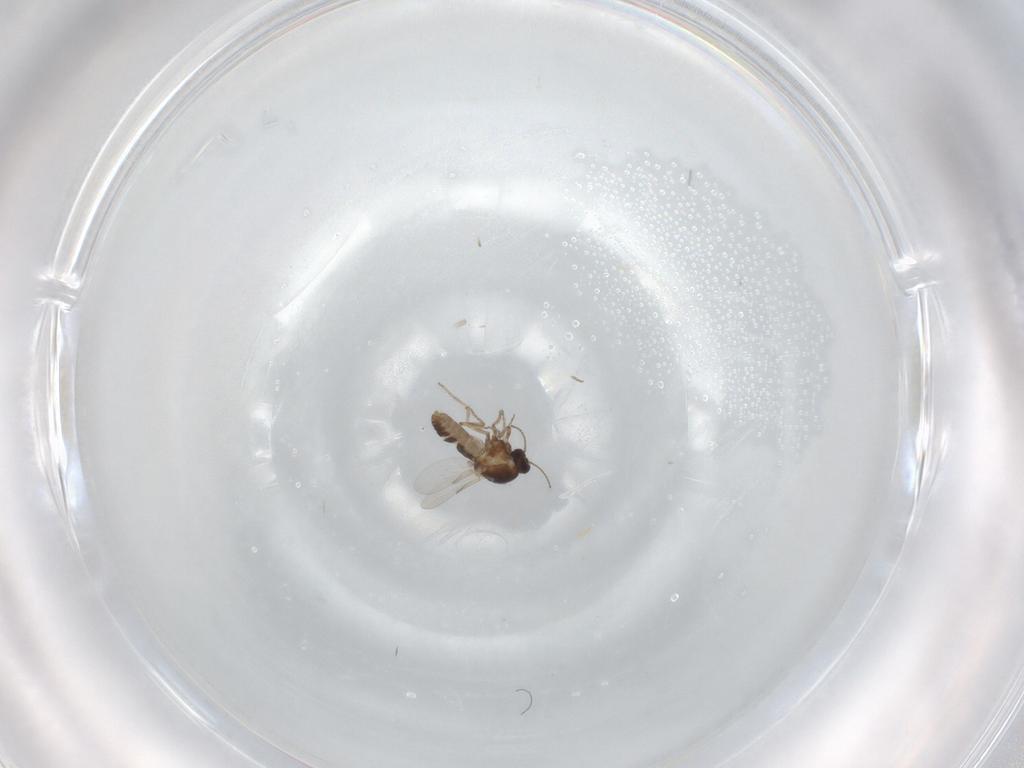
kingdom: Animalia
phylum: Arthropoda
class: Insecta
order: Diptera
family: Ceratopogonidae
